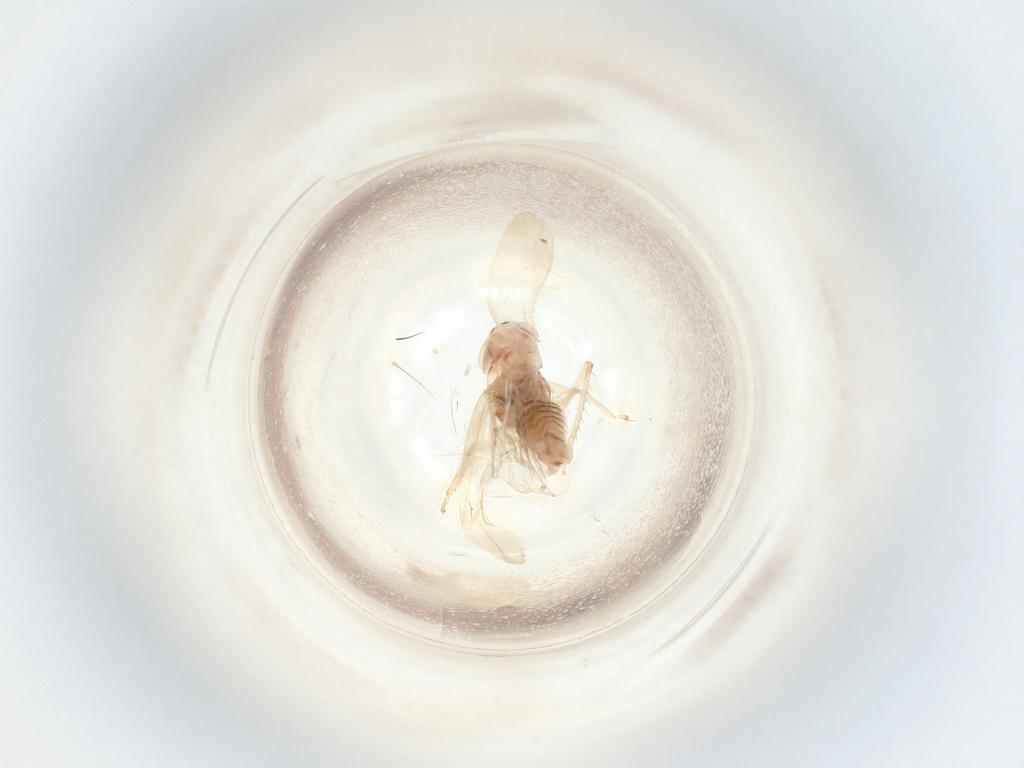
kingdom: Animalia
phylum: Arthropoda
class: Insecta
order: Hemiptera
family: Cicadellidae
